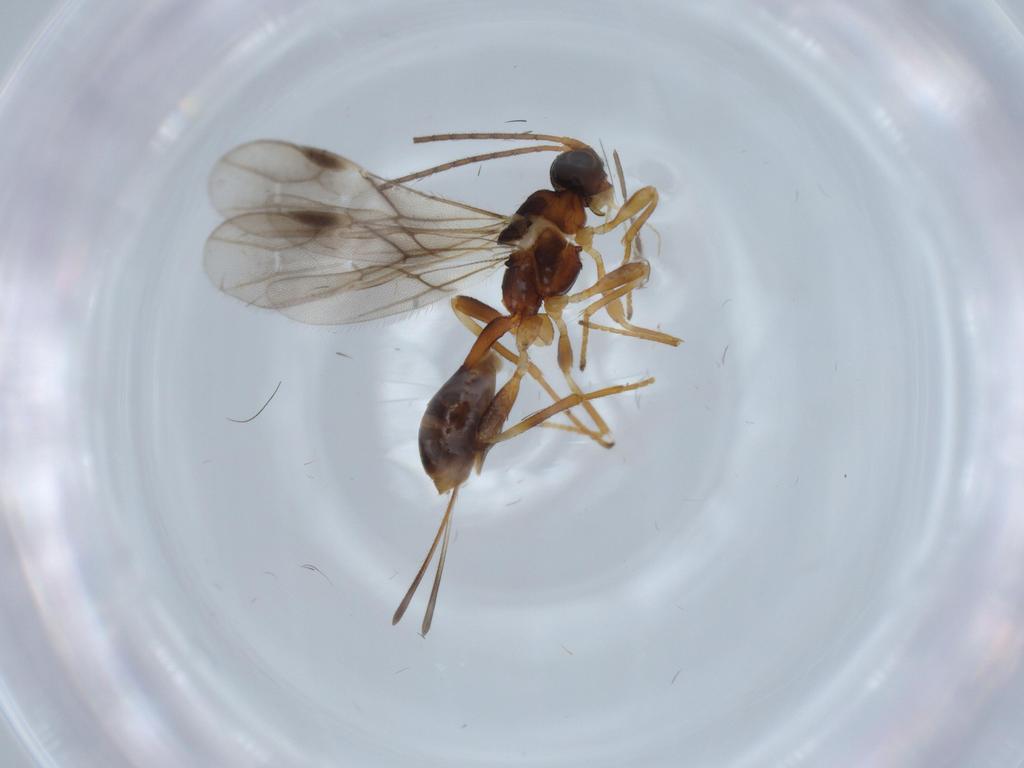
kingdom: Animalia
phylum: Arthropoda
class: Insecta
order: Hymenoptera
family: Braconidae
